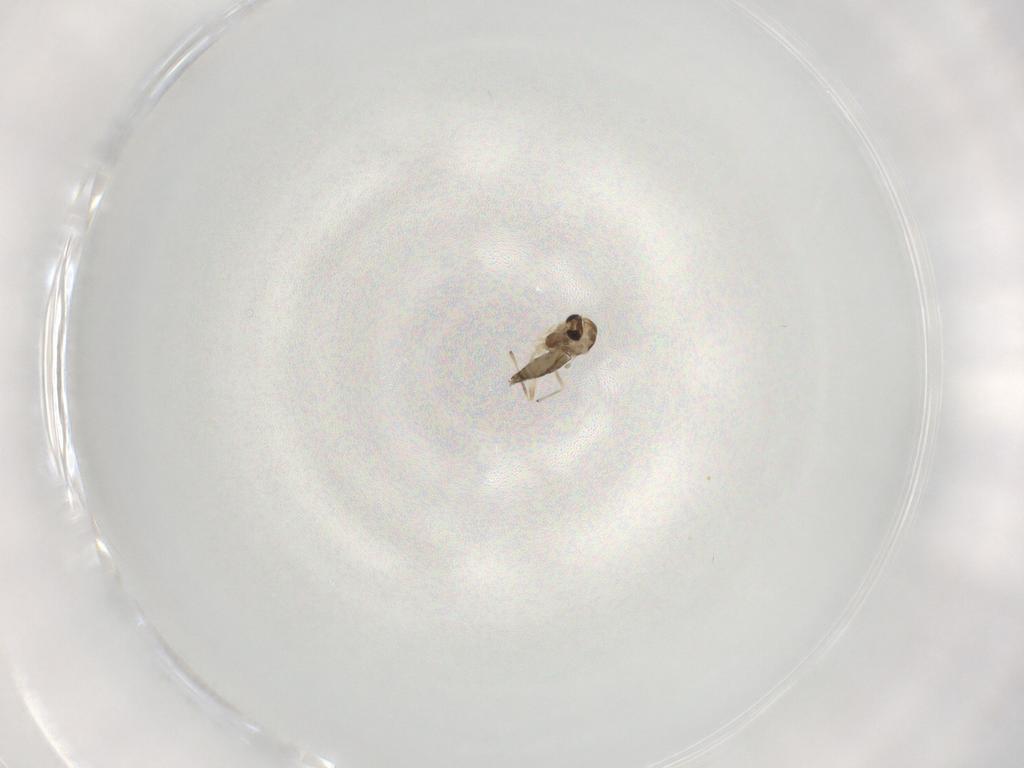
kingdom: Animalia
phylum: Arthropoda
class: Insecta
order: Diptera
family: Chironomidae
